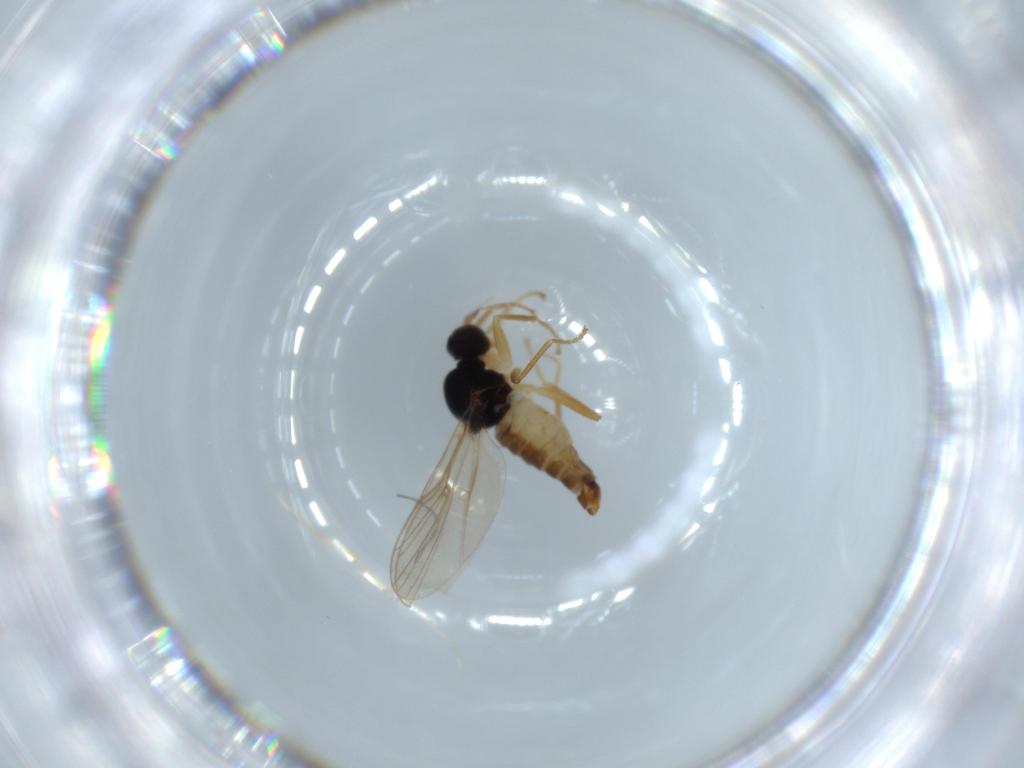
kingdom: Animalia
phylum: Arthropoda
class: Insecta
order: Diptera
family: Hybotidae
